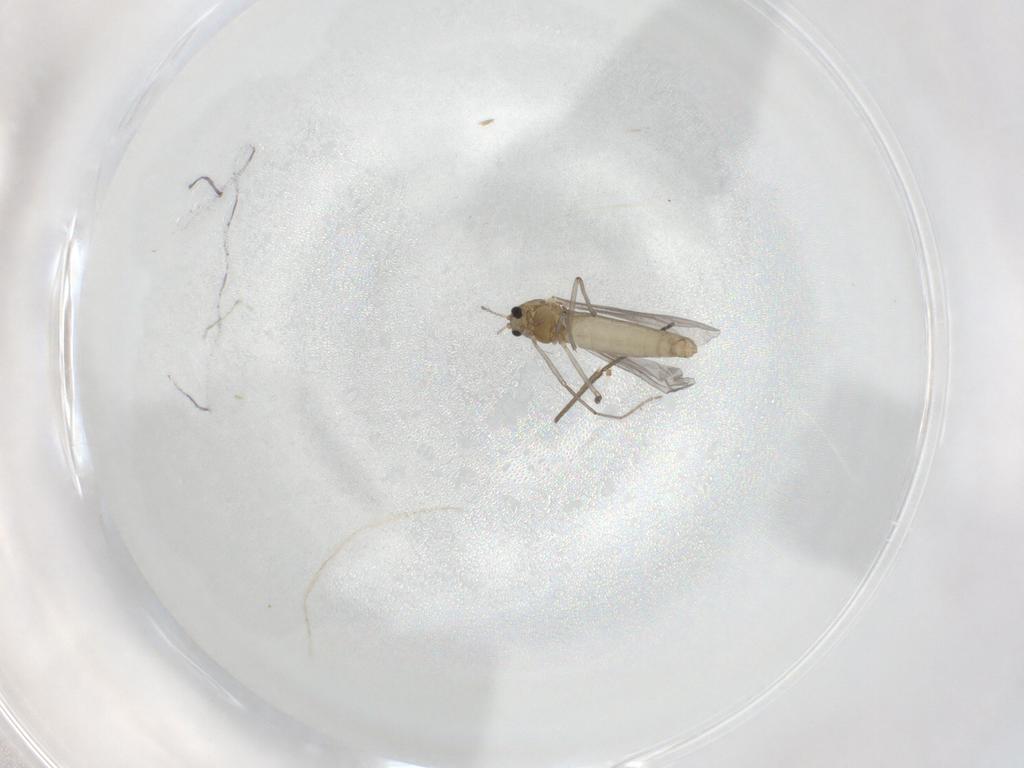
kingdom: Animalia
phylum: Arthropoda
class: Insecta
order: Diptera
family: Chironomidae
